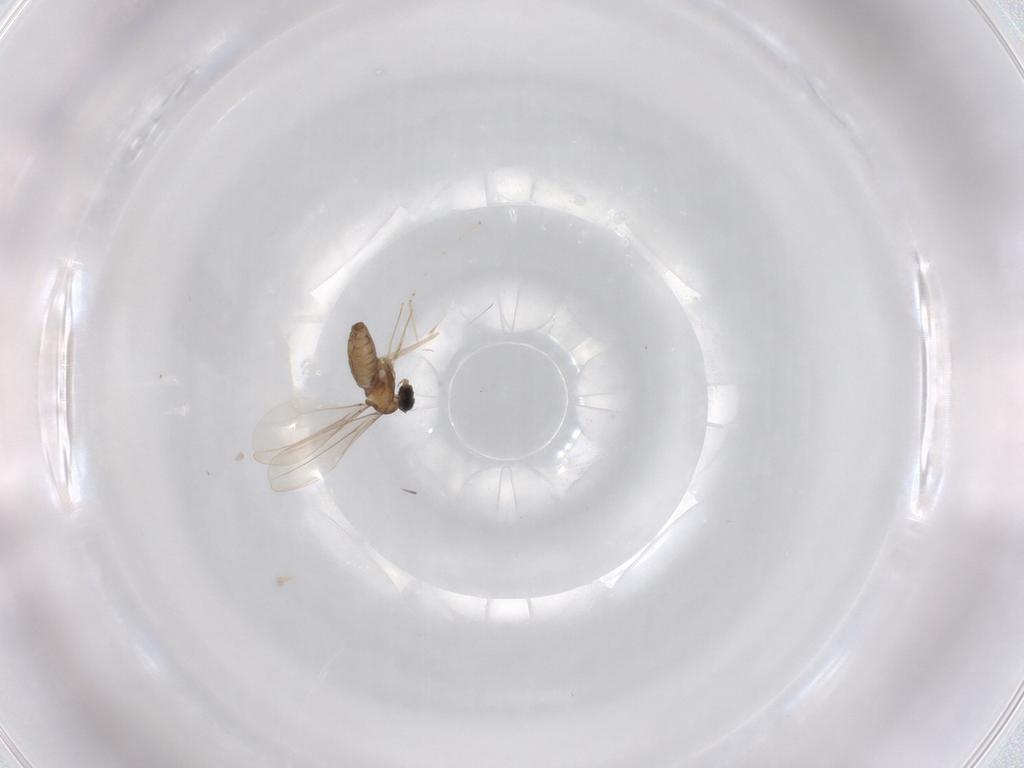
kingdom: Animalia
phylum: Arthropoda
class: Insecta
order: Diptera
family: Cecidomyiidae
